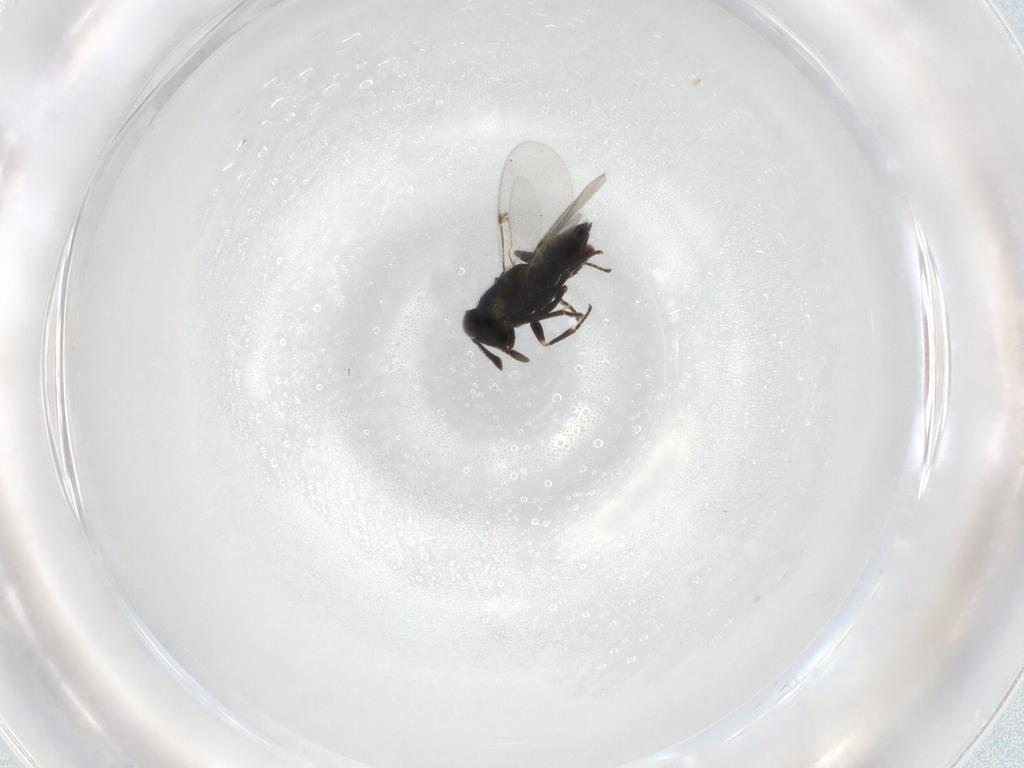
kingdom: Animalia
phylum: Arthropoda
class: Insecta
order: Hymenoptera
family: Encyrtidae
